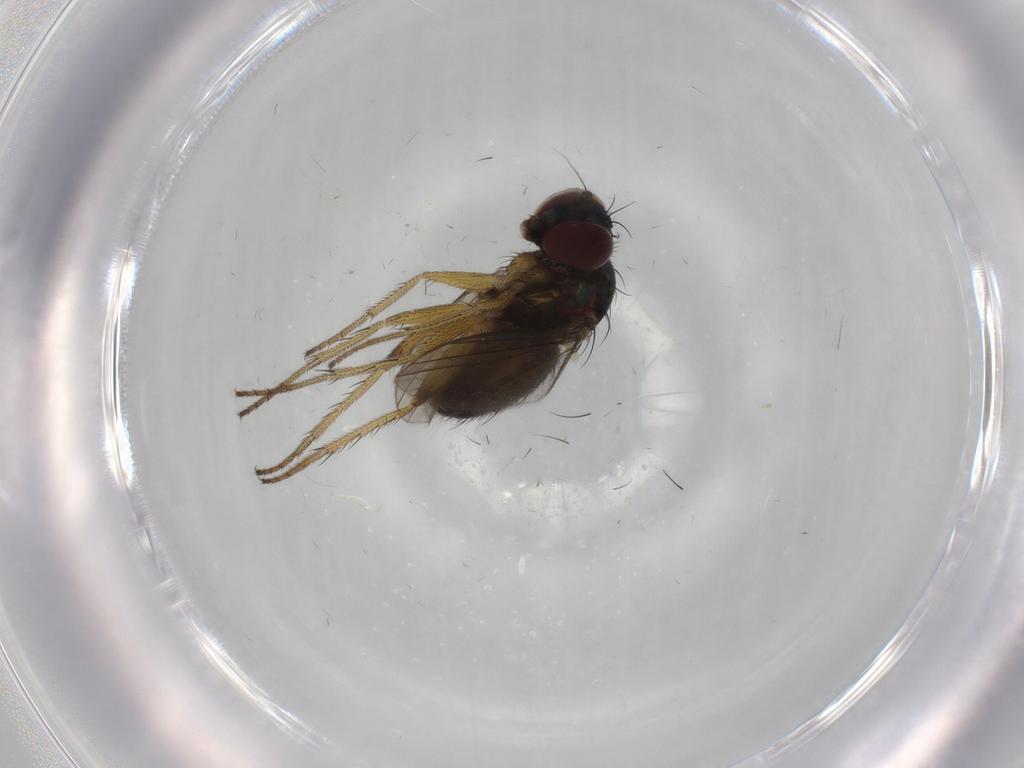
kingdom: Animalia
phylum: Arthropoda
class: Insecta
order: Diptera
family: Dolichopodidae
